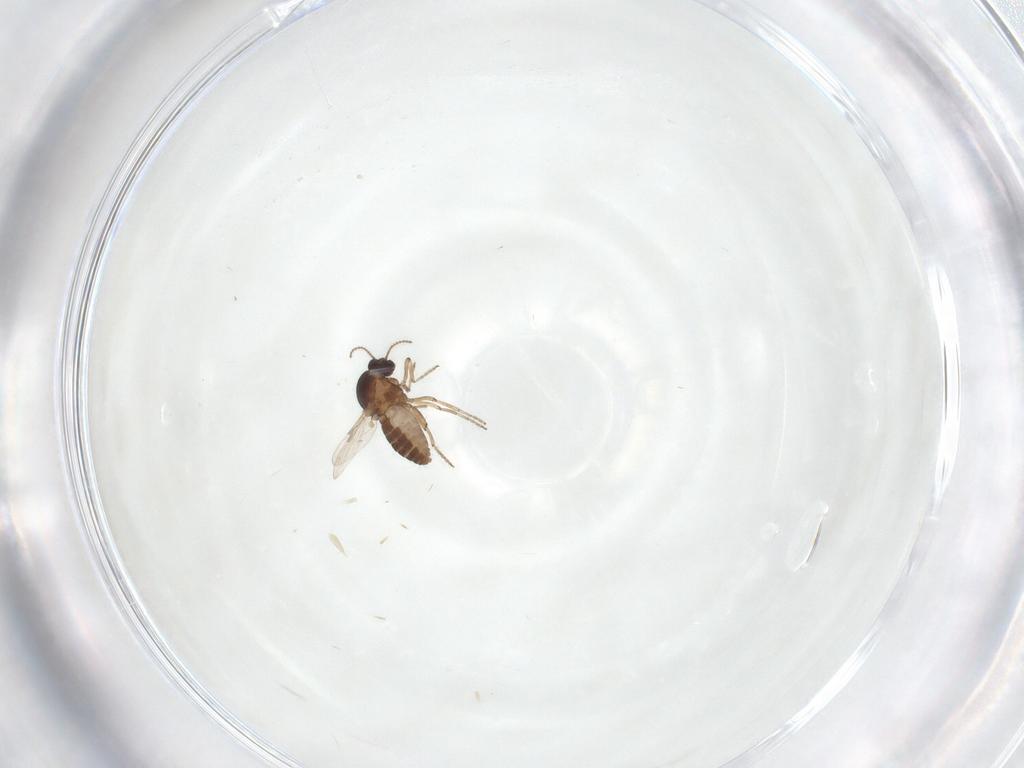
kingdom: Animalia
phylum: Arthropoda
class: Insecta
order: Diptera
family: Ceratopogonidae
